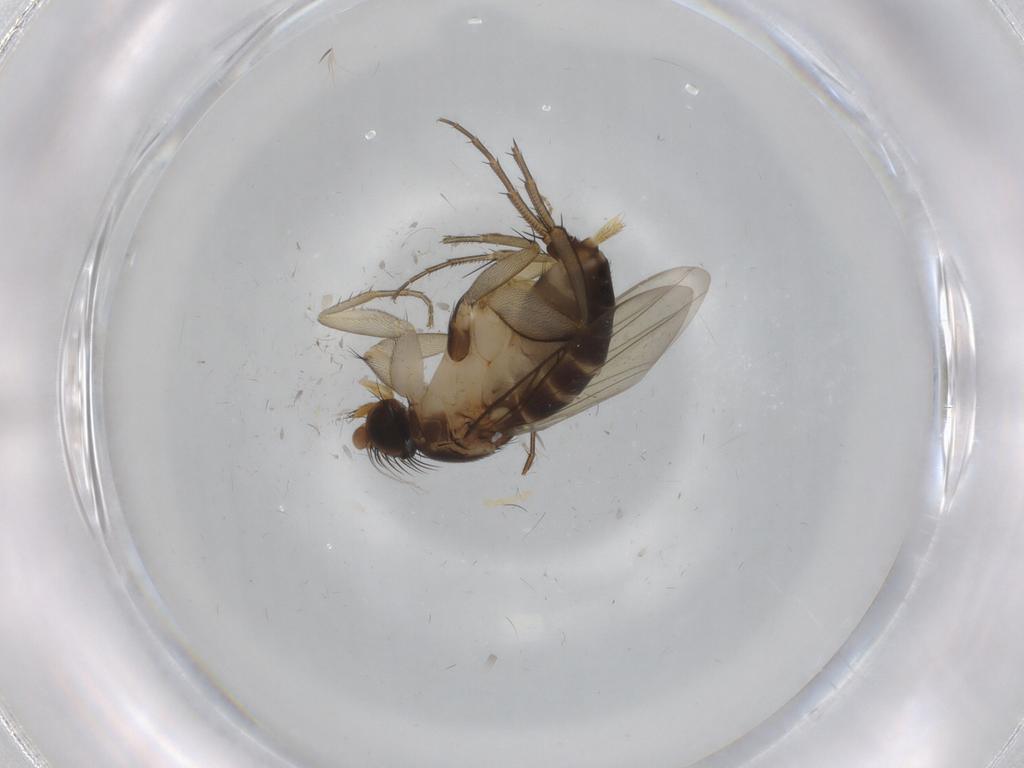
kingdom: Animalia
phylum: Arthropoda
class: Insecta
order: Diptera
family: Phoridae
